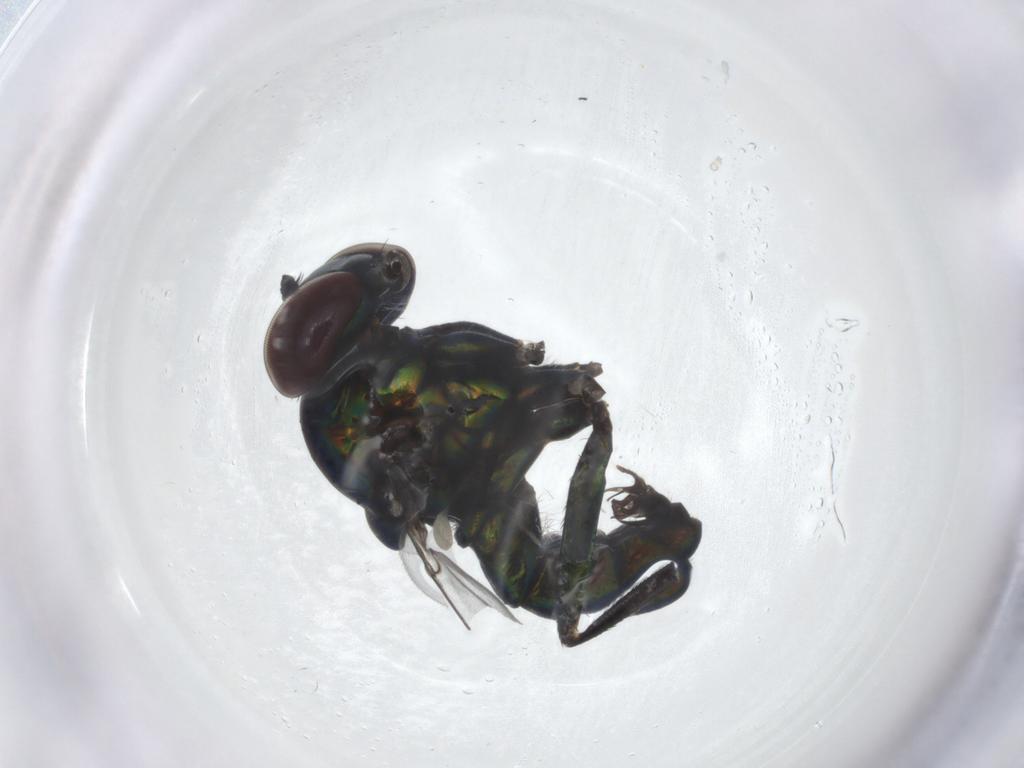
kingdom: Animalia
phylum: Arthropoda
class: Insecta
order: Diptera
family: Dolichopodidae
